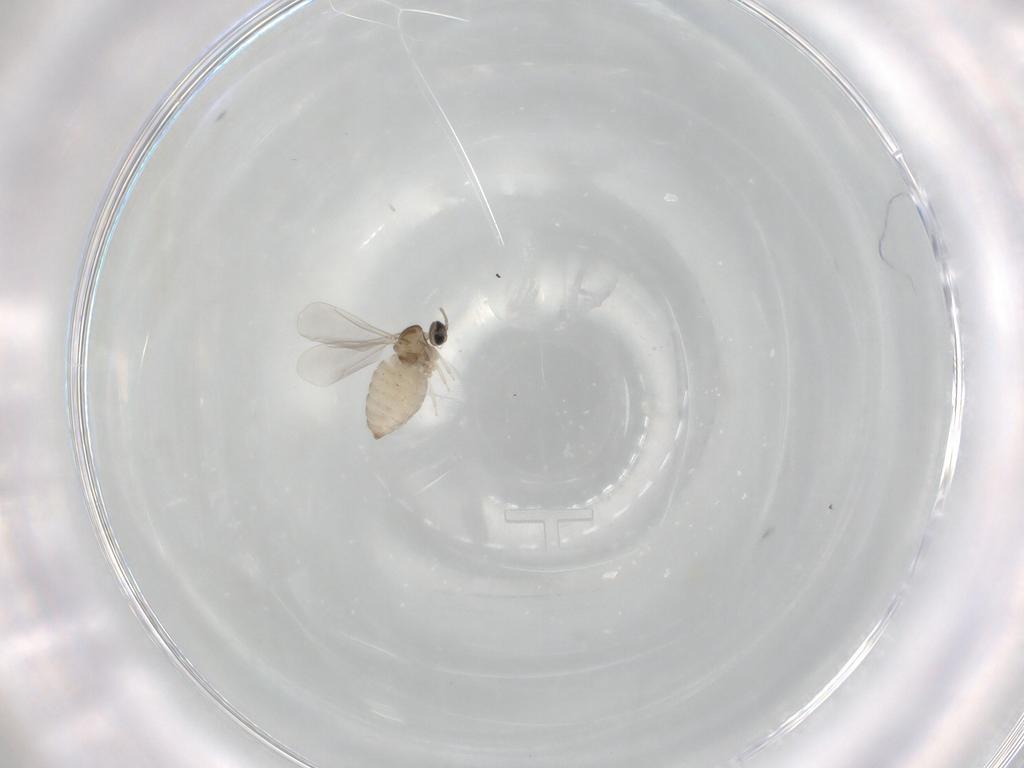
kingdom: Animalia
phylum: Arthropoda
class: Insecta
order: Diptera
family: Cecidomyiidae
